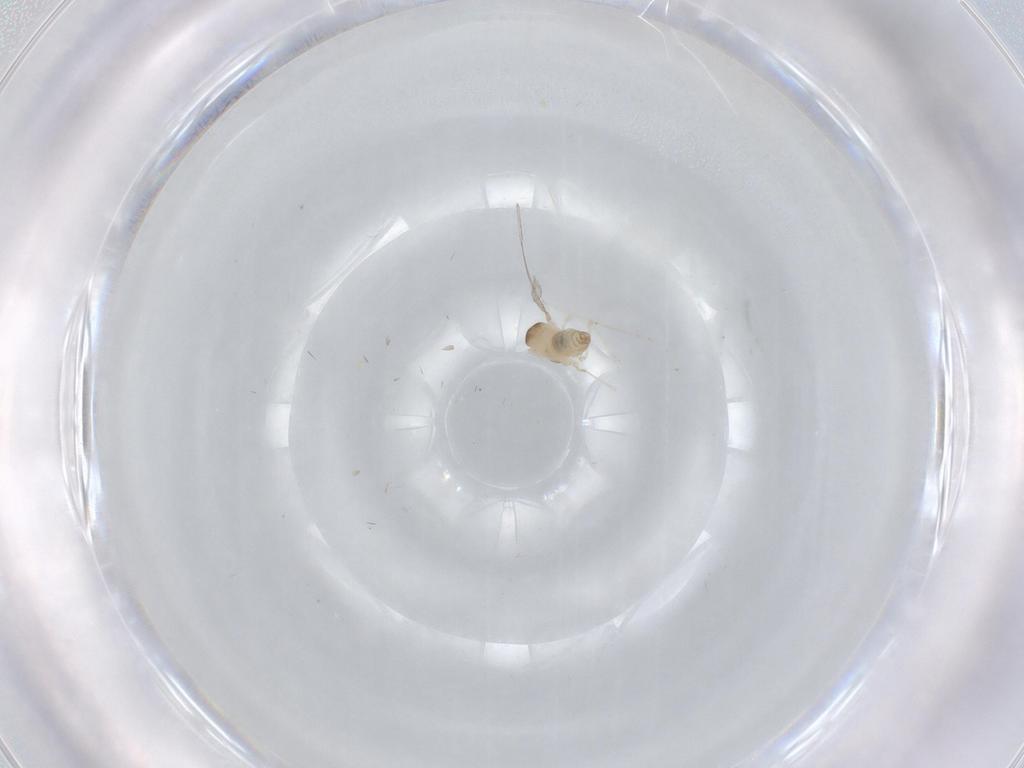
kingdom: Animalia
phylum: Arthropoda
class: Insecta
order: Diptera
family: Cecidomyiidae
